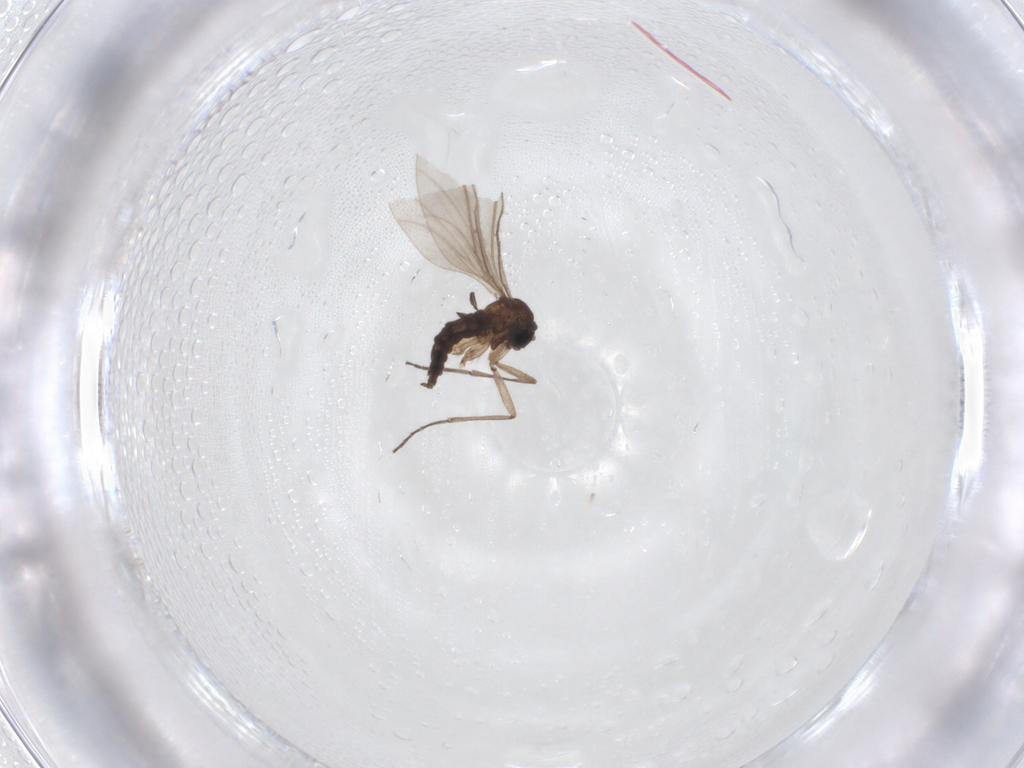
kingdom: Animalia
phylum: Arthropoda
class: Insecta
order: Diptera
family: Sciaridae
